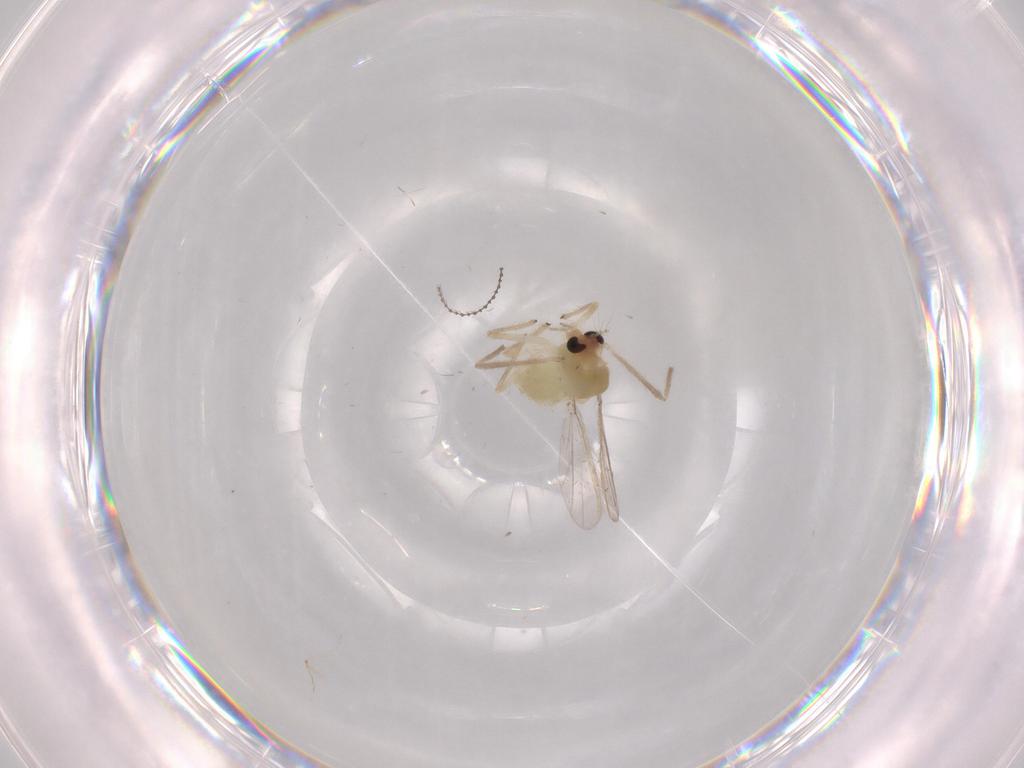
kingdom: Animalia
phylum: Arthropoda
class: Insecta
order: Diptera
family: Chironomidae
